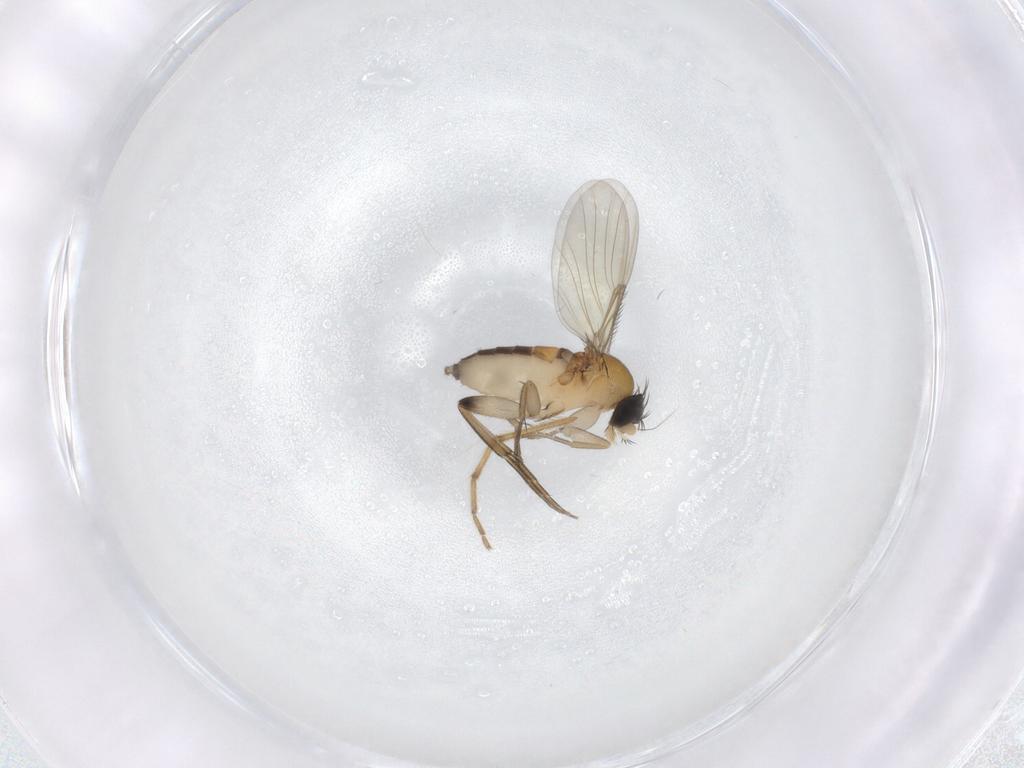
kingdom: Animalia
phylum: Arthropoda
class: Insecta
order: Diptera
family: Phoridae
